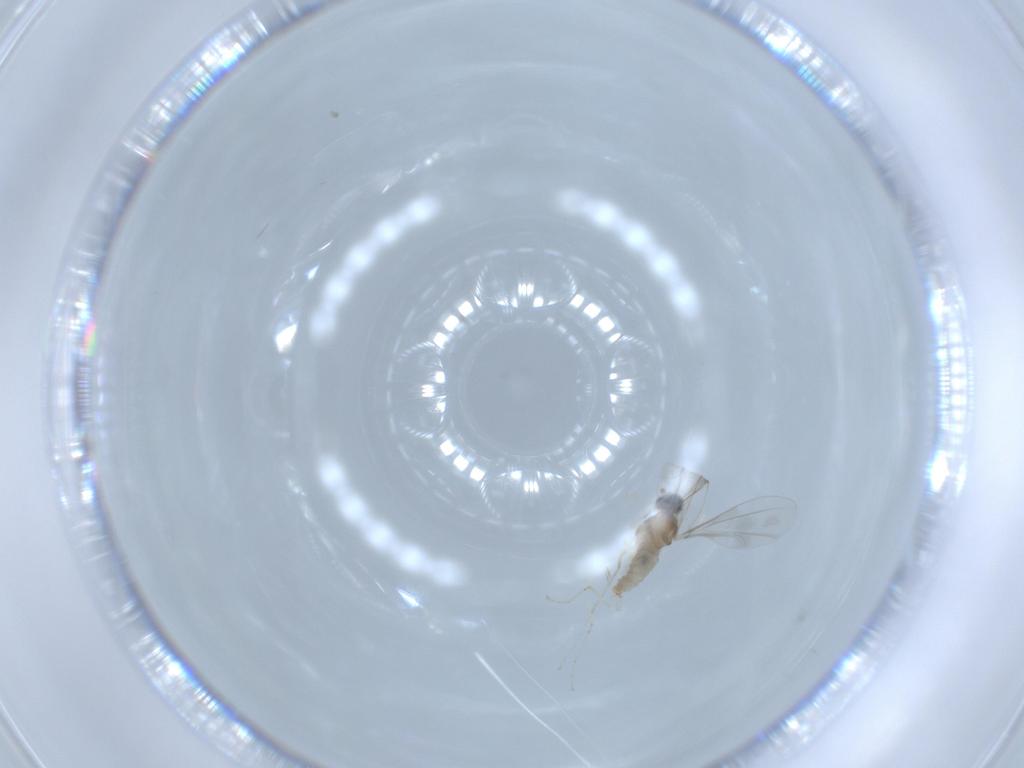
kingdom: Animalia
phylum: Arthropoda
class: Insecta
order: Diptera
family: Cecidomyiidae
